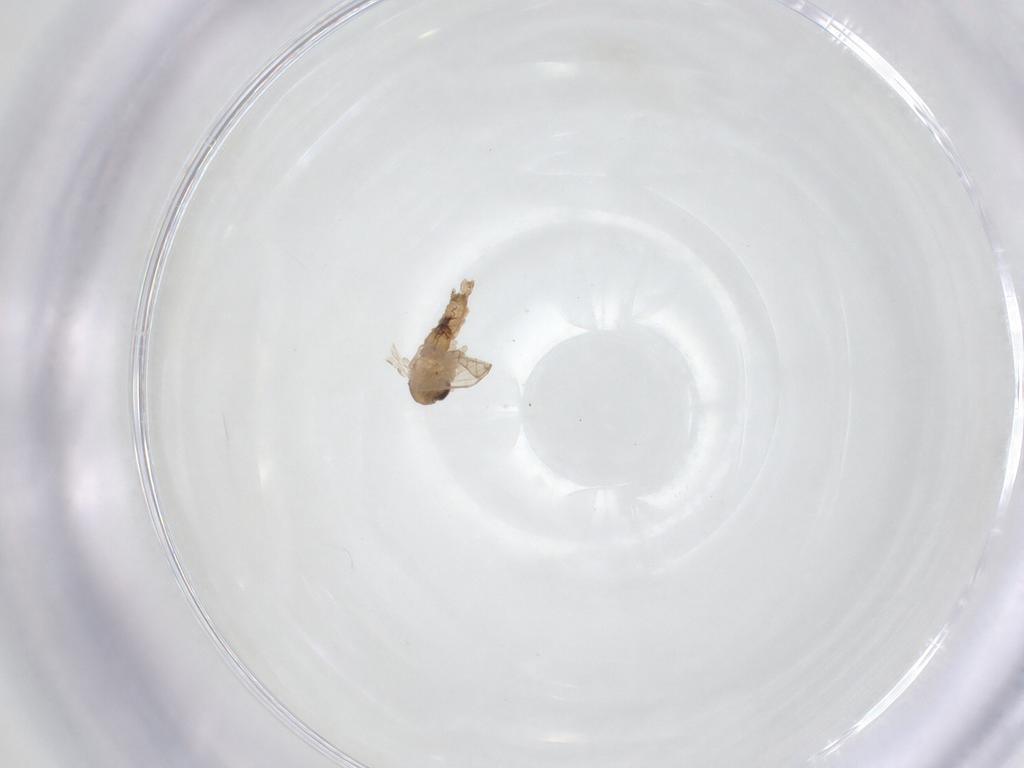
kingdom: Animalia
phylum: Arthropoda
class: Insecta
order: Diptera
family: Psychodidae
